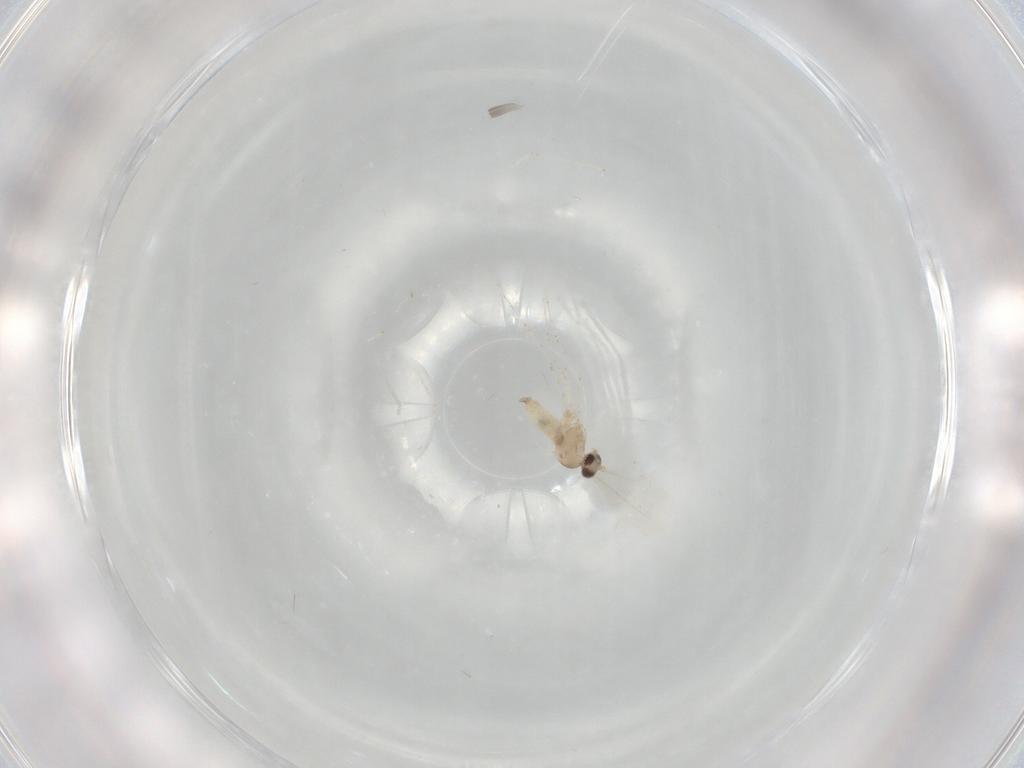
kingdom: Animalia
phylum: Arthropoda
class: Insecta
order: Diptera
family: Cecidomyiidae
